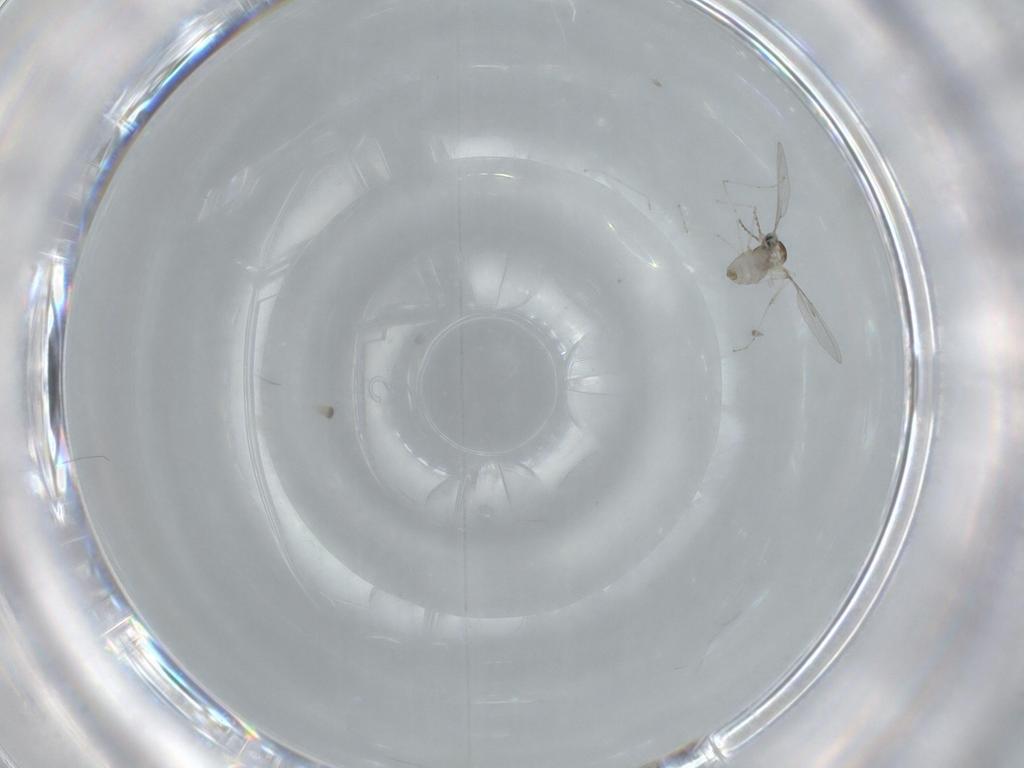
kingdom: Animalia
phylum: Arthropoda
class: Insecta
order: Diptera
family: Cecidomyiidae
